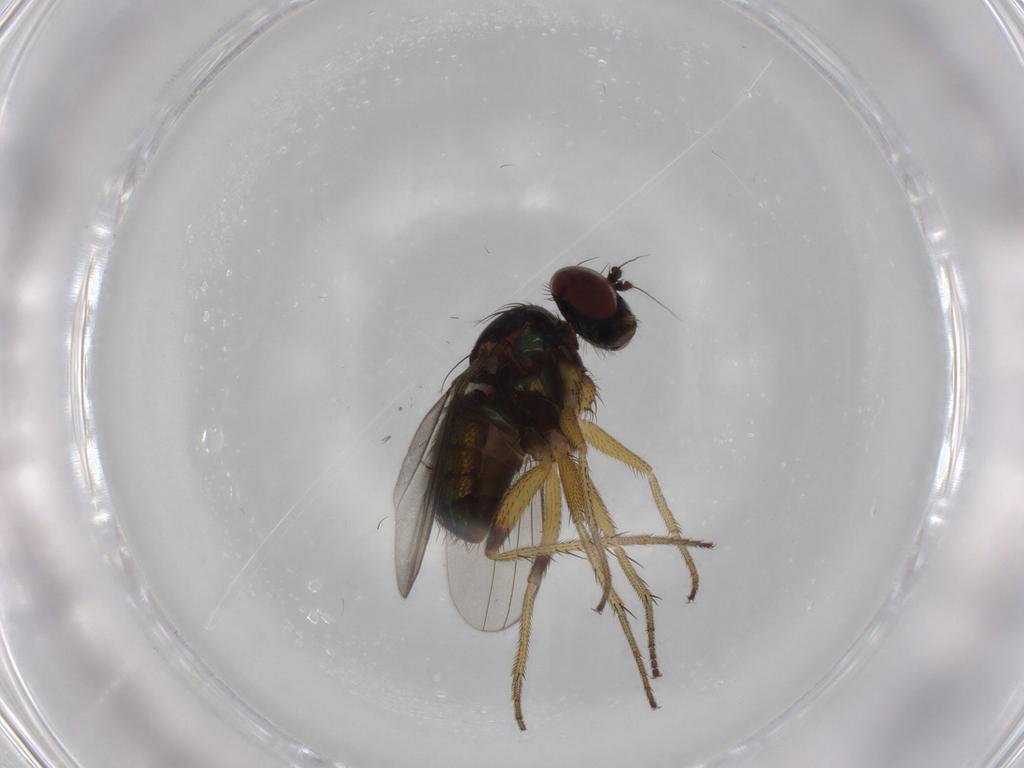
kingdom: Animalia
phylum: Arthropoda
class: Insecta
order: Diptera
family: Dolichopodidae
